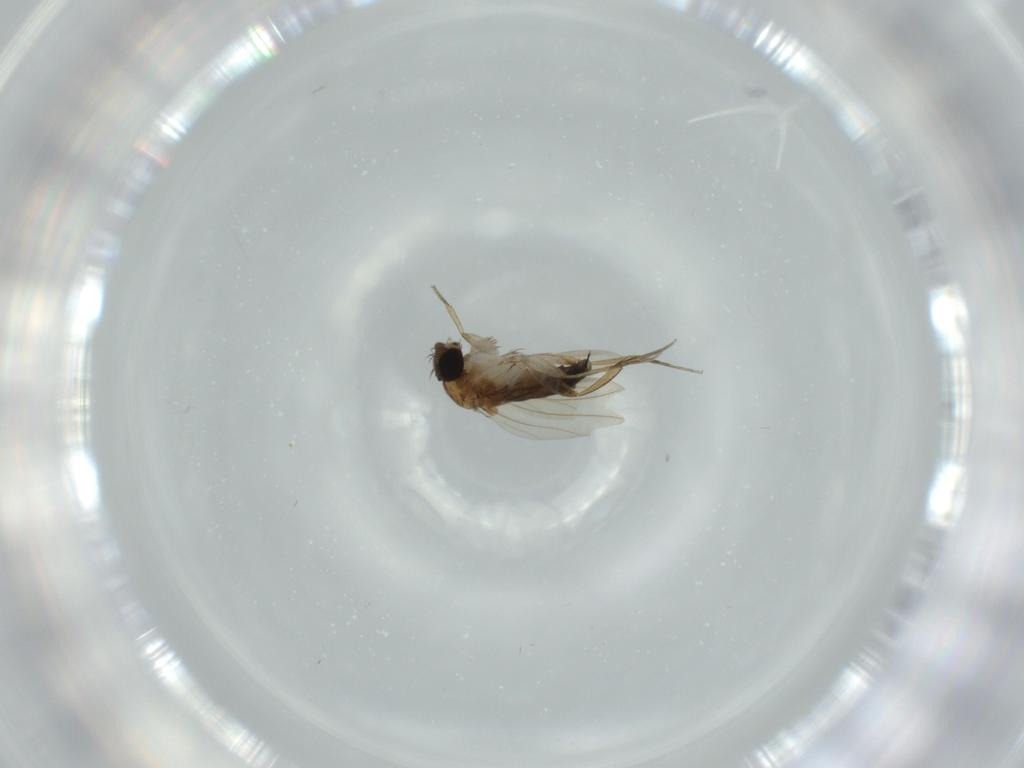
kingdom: Animalia
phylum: Arthropoda
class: Insecta
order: Diptera
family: Phoridae
